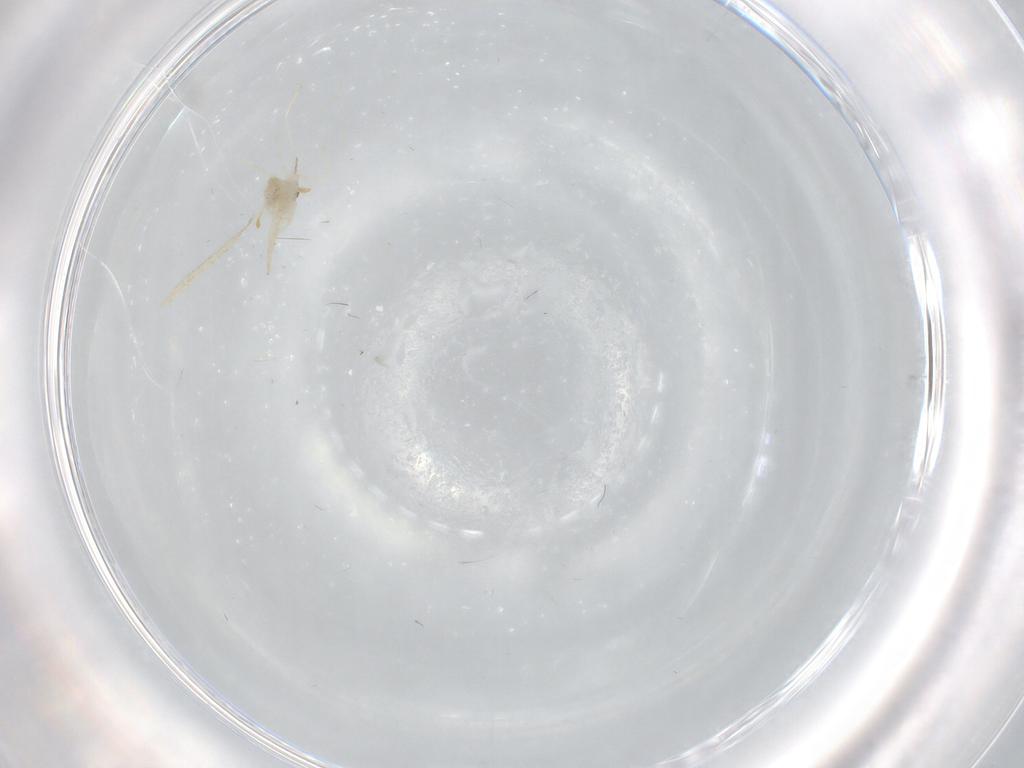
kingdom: Animalia
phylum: Arthropoda
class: Insecta
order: Diptera
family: Cecidomyiidae
